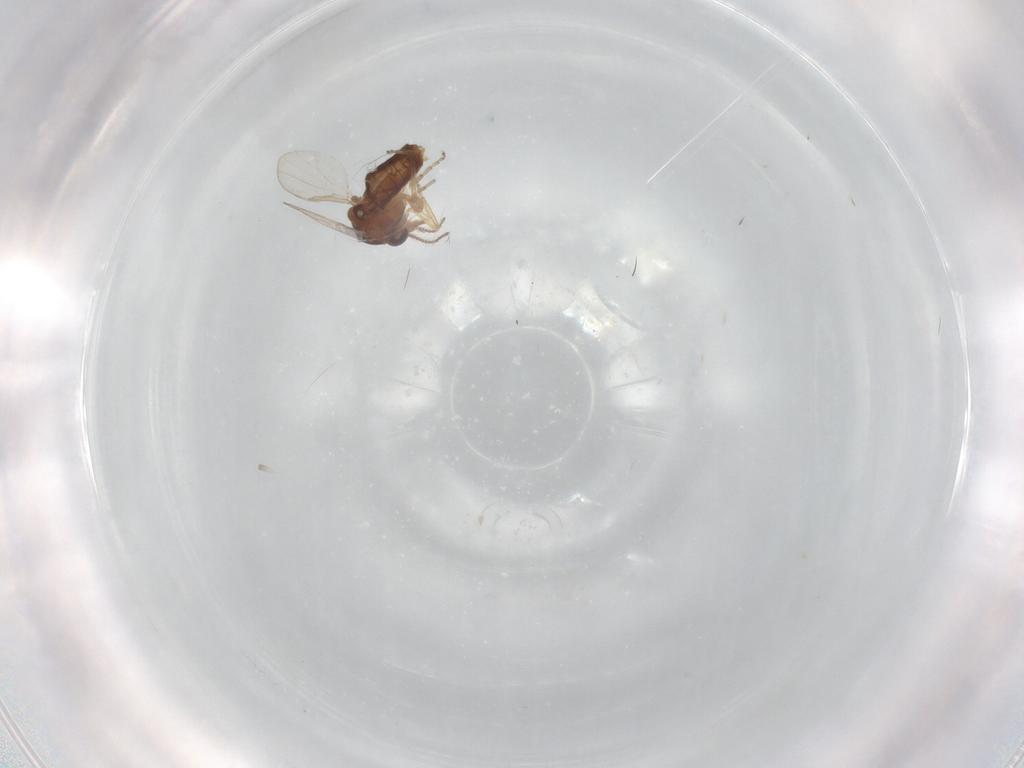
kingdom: Animalia
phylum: Arthropoda
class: Insecta
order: Diptera
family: Ceratopogonidae
